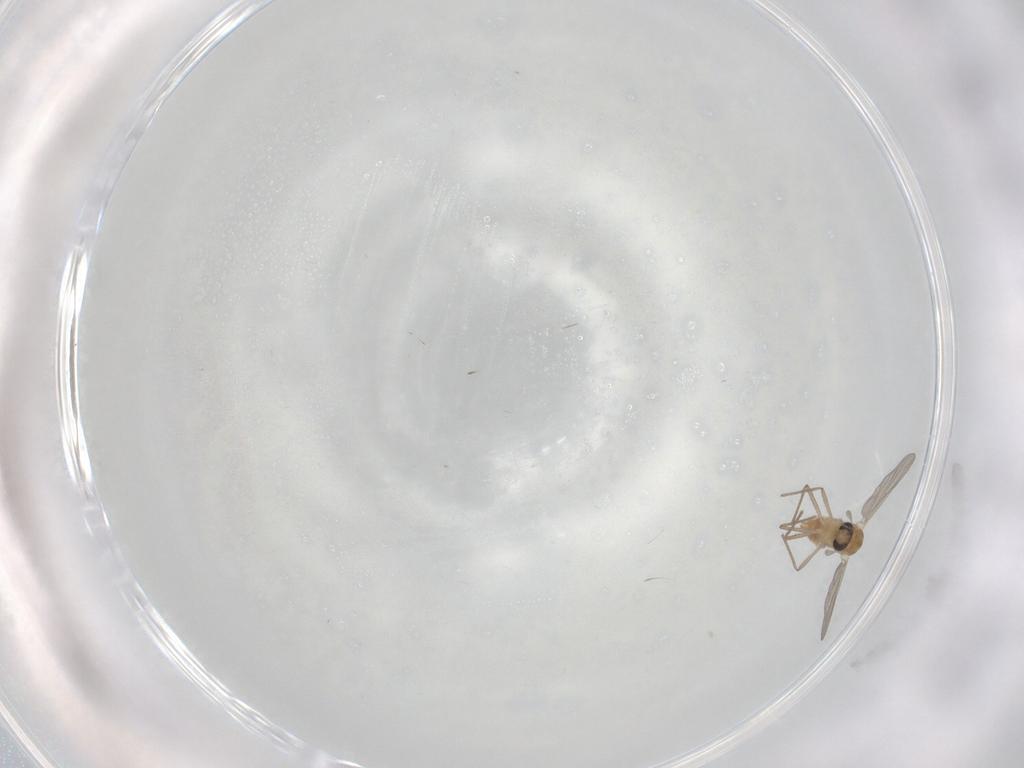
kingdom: Animalia
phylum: Arthropoda
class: Insecta
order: Diptera
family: Chironomidae
